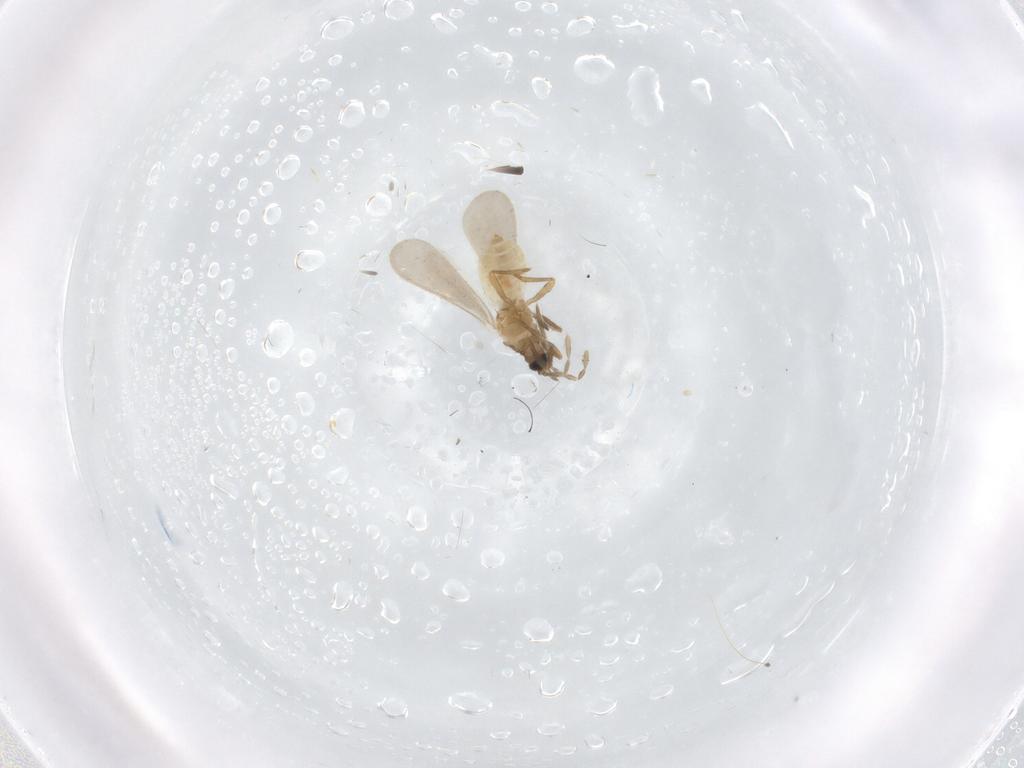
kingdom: Animalia
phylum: Arthropoda
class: Insecta
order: Hemiptera
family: Enicocephalidae
